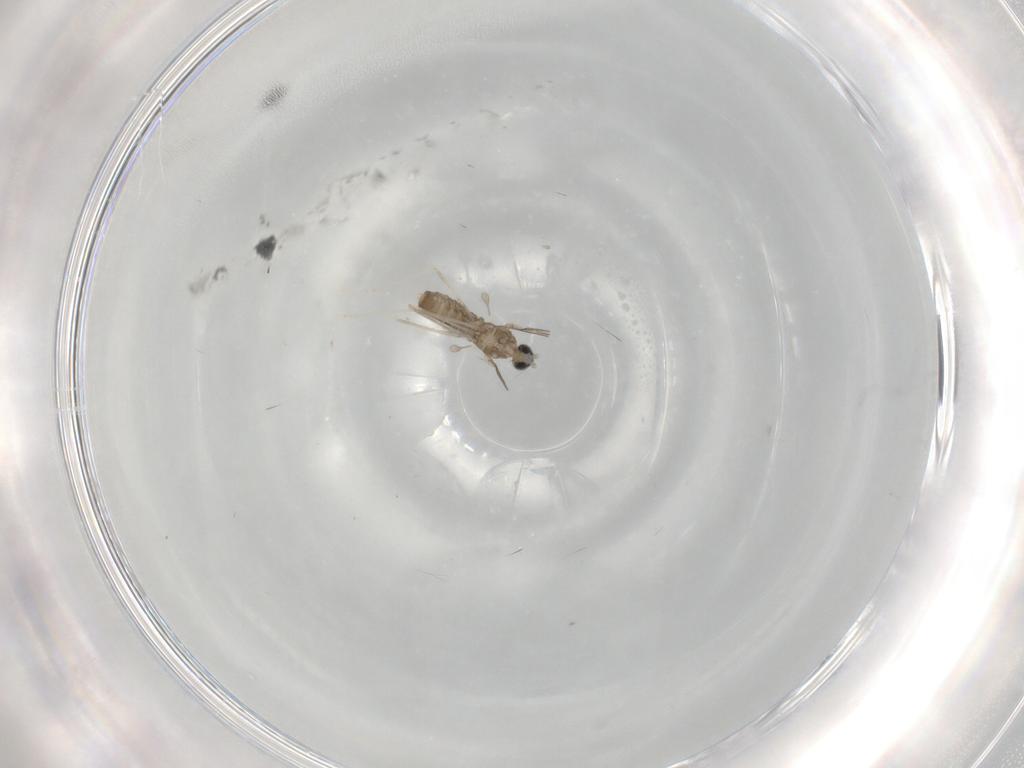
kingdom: Animalia
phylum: Arthropoda
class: Insecta
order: Diptera
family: Cecidomyiidae
